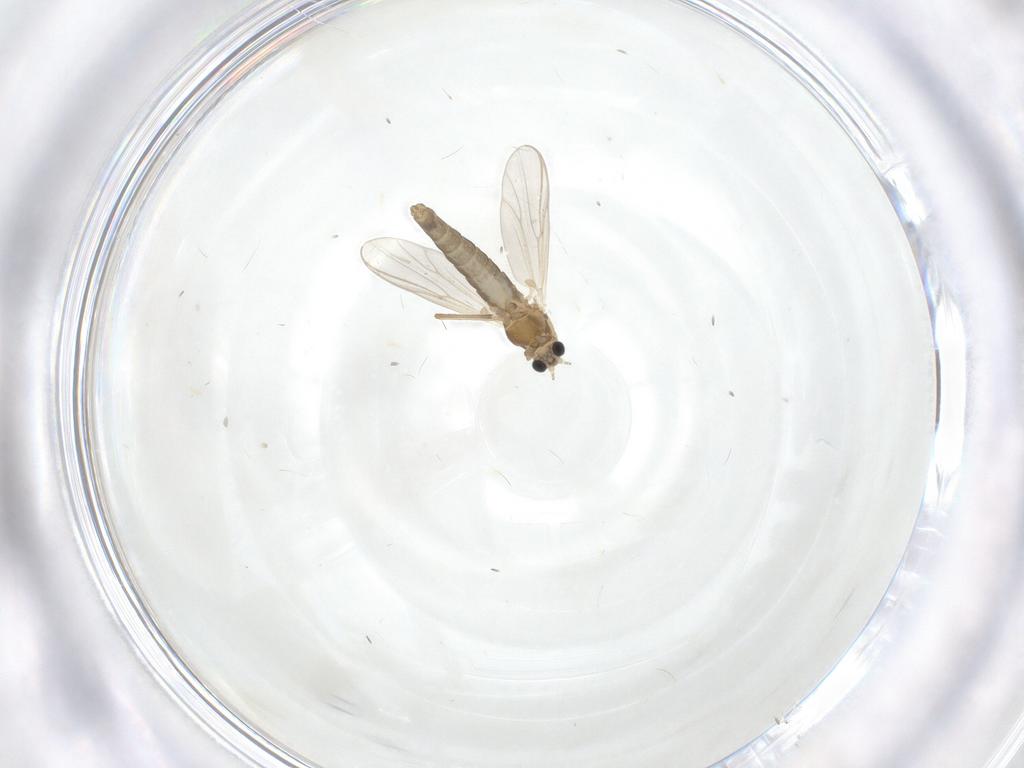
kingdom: Animalia
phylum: Arthropoda
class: Insecta
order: Diptera
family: Chironomidae
